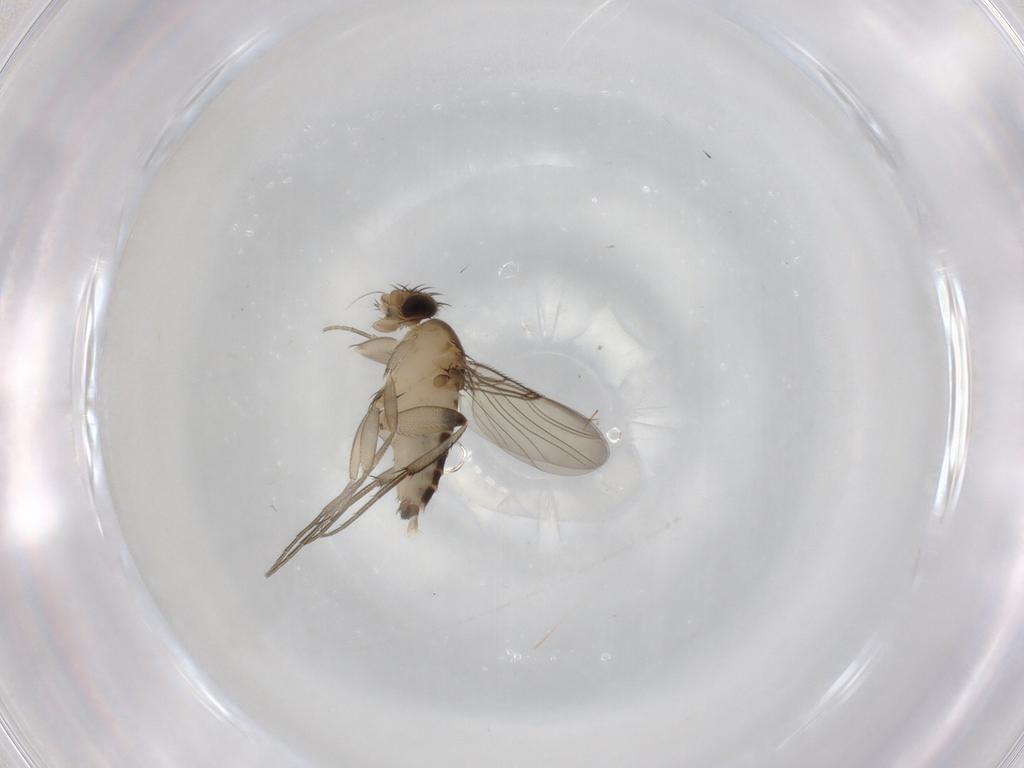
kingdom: Animalia
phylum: Arthropoda
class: Insecta
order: Diptera
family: Phoridae
